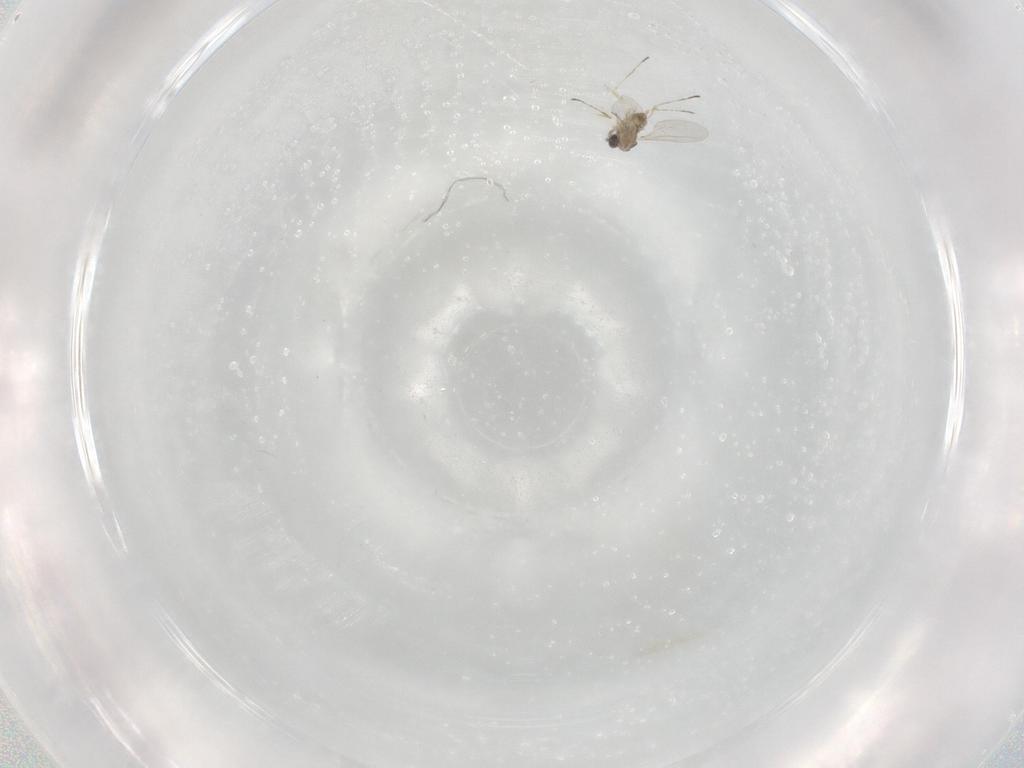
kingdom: Animalia
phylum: Arthropoda
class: Insecta
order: Diptera
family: Cecidomyiidae
